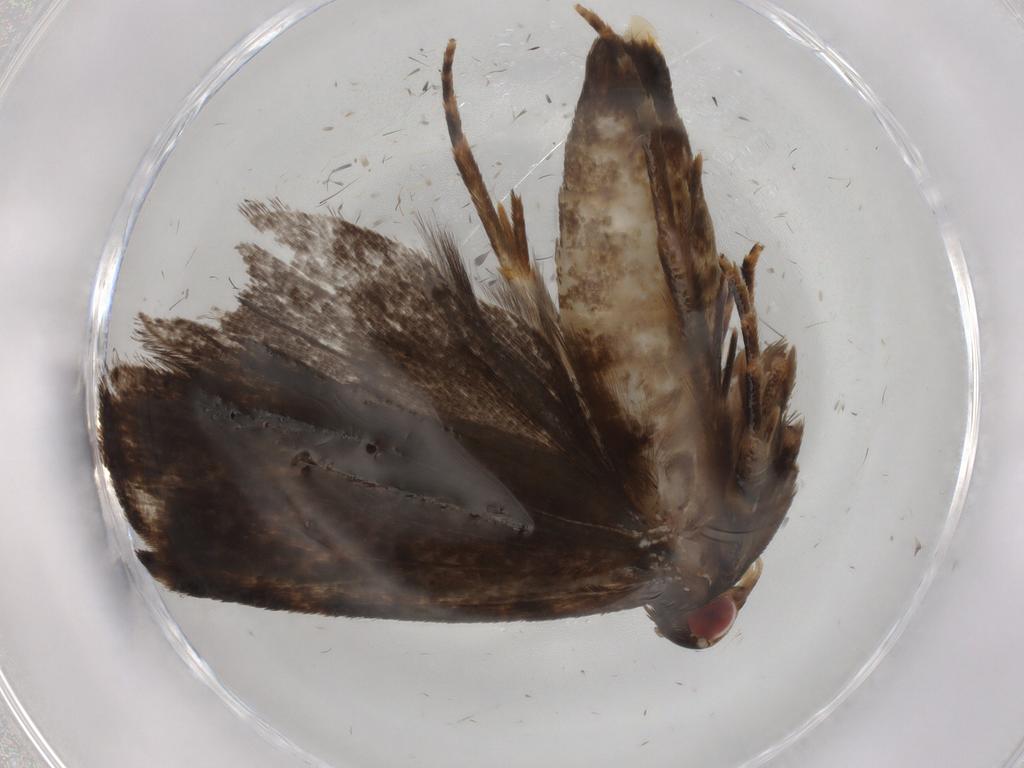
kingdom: Animalia
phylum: Arthropoda
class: Insecta
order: Lepidoptera
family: Nepticulidae
